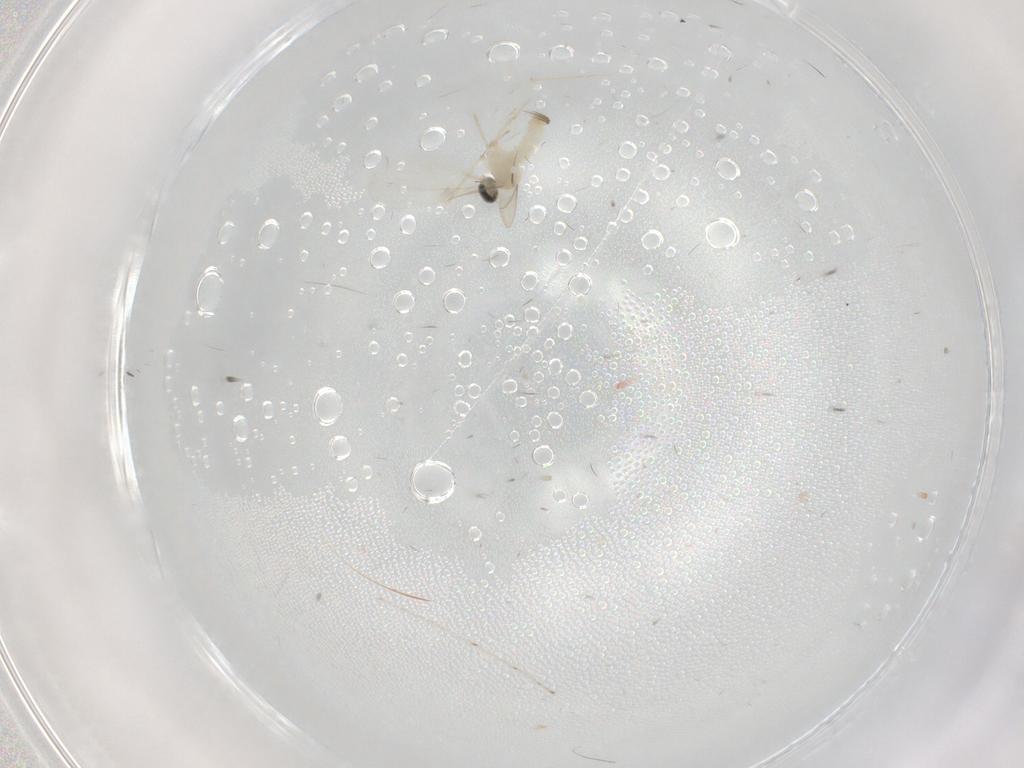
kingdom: Animalia
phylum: Arthropoda
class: Insecta
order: Diptera
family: Cecidomyiidae
